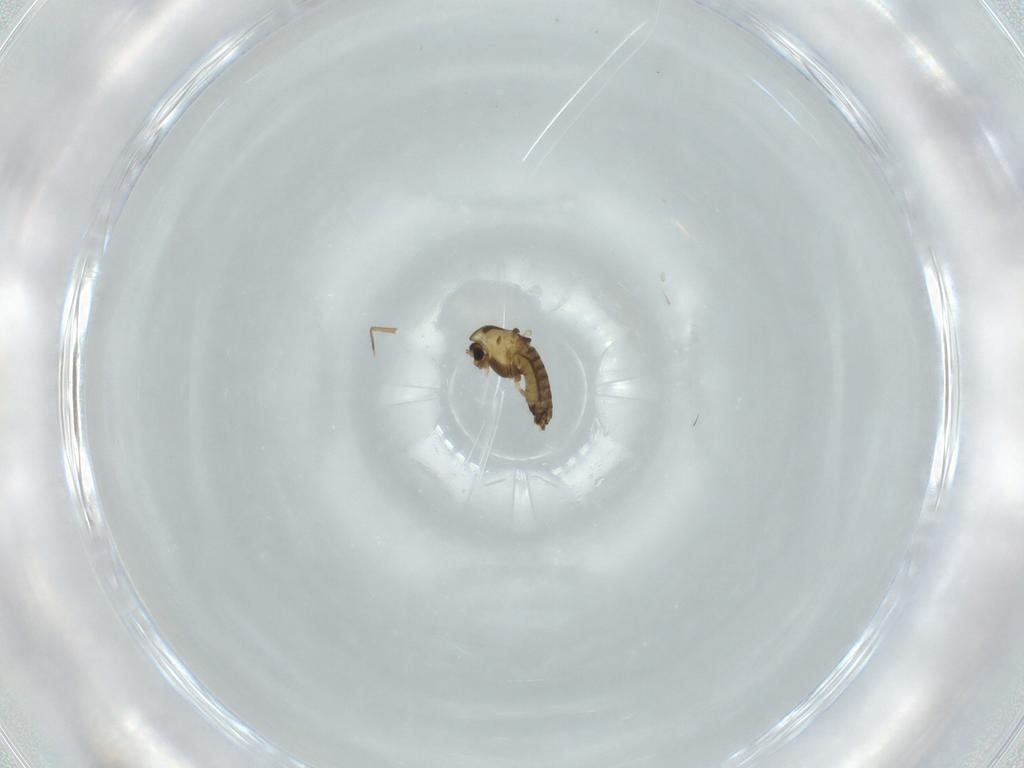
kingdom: Animalia
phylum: Arthropoda
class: Insecta
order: Diptera
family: Chironomidae
